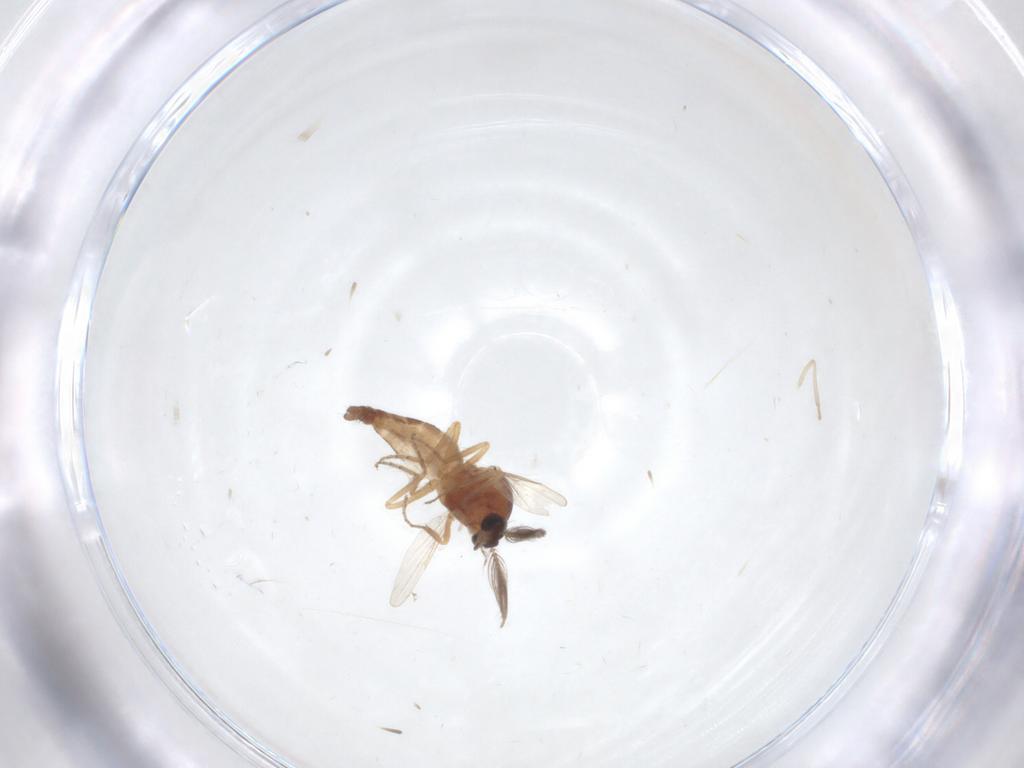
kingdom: Animalia
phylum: Arthropoda
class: Insecta
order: Diptera
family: Ceratopogonidae
